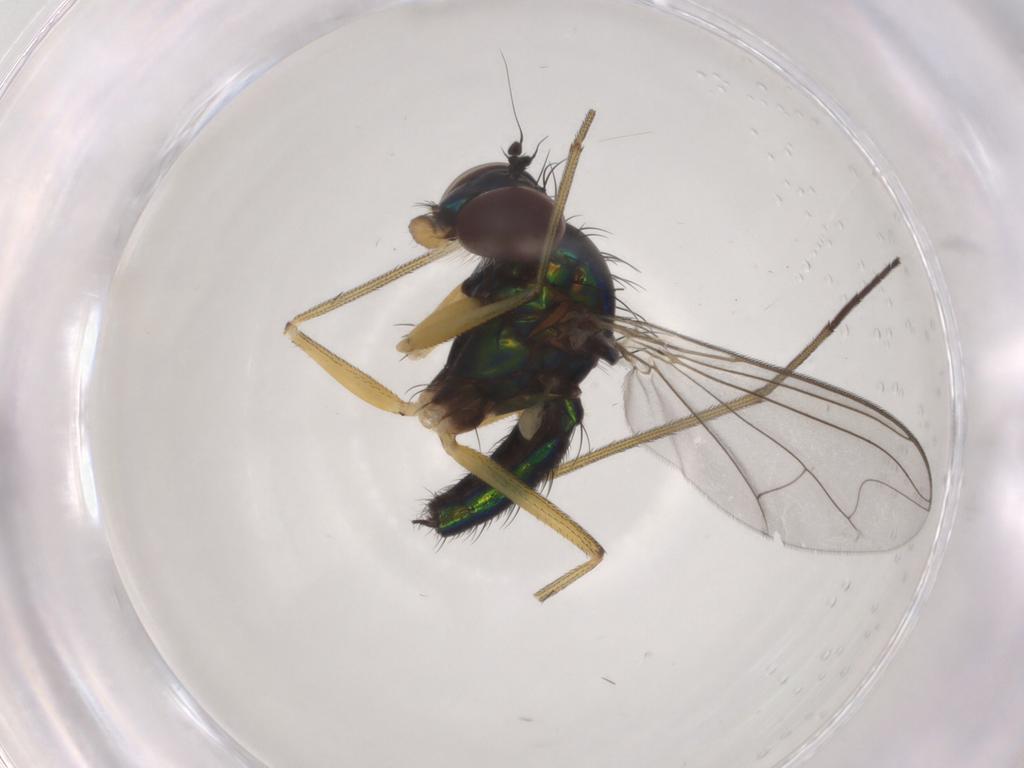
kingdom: Animalia
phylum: Arthropoda
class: Insecta
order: Diptera
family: Dolichopodidae
